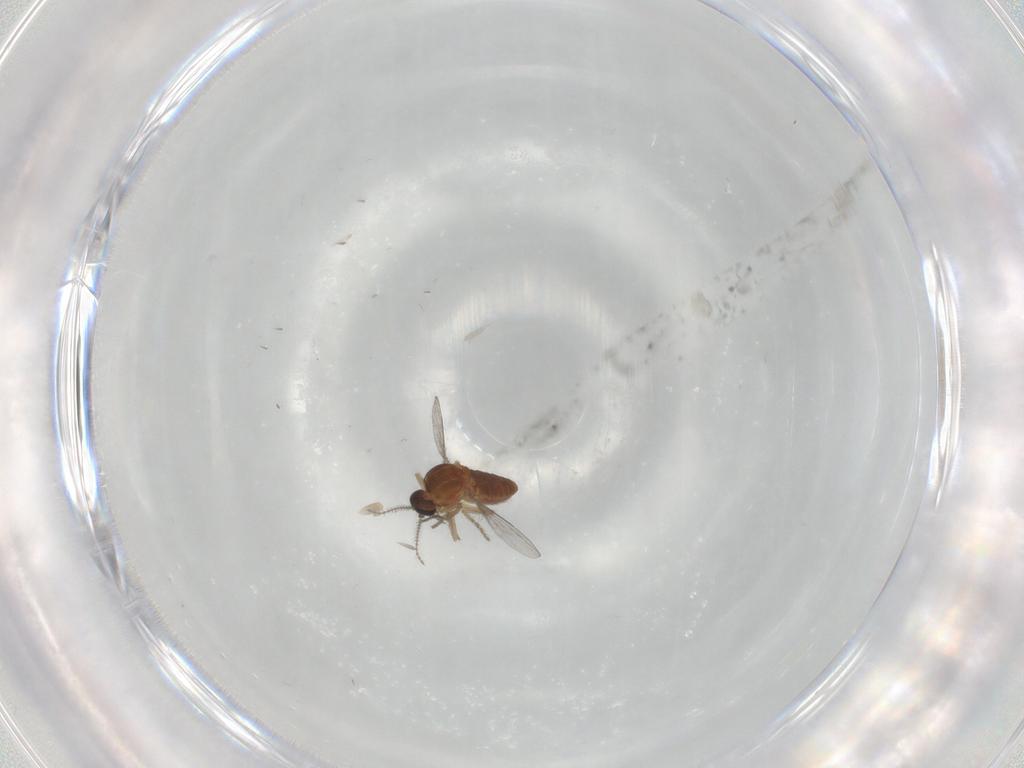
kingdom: Animalia
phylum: Arthropoda
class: Insecta
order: Diptera
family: Ceratopogonidae
